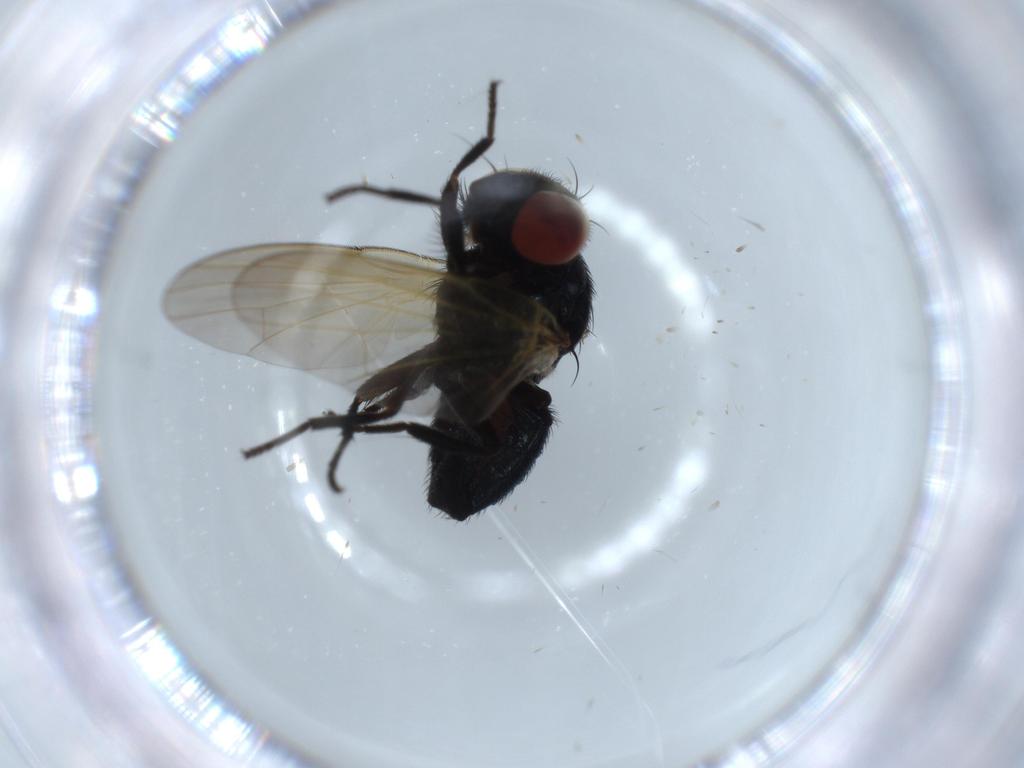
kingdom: Animalia
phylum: Arthropoda
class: Insecta
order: Diptera
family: Lonchaeidae
